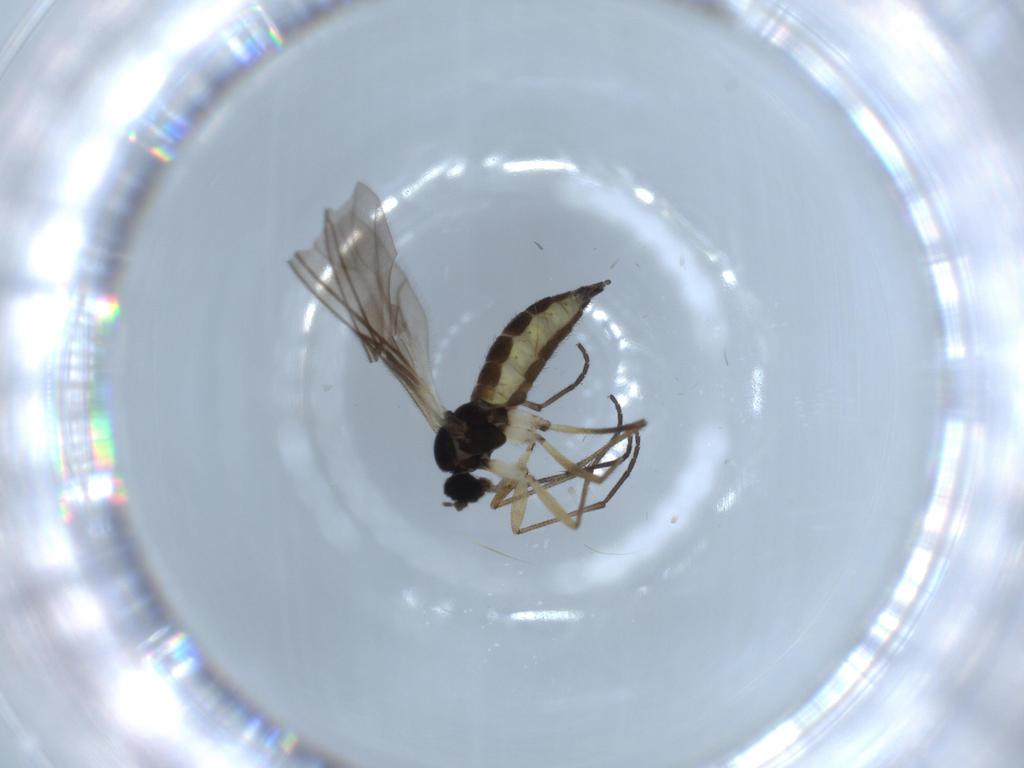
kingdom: Animalia
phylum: Arthropoda
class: Insecta
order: Diptera
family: Sciaridae
